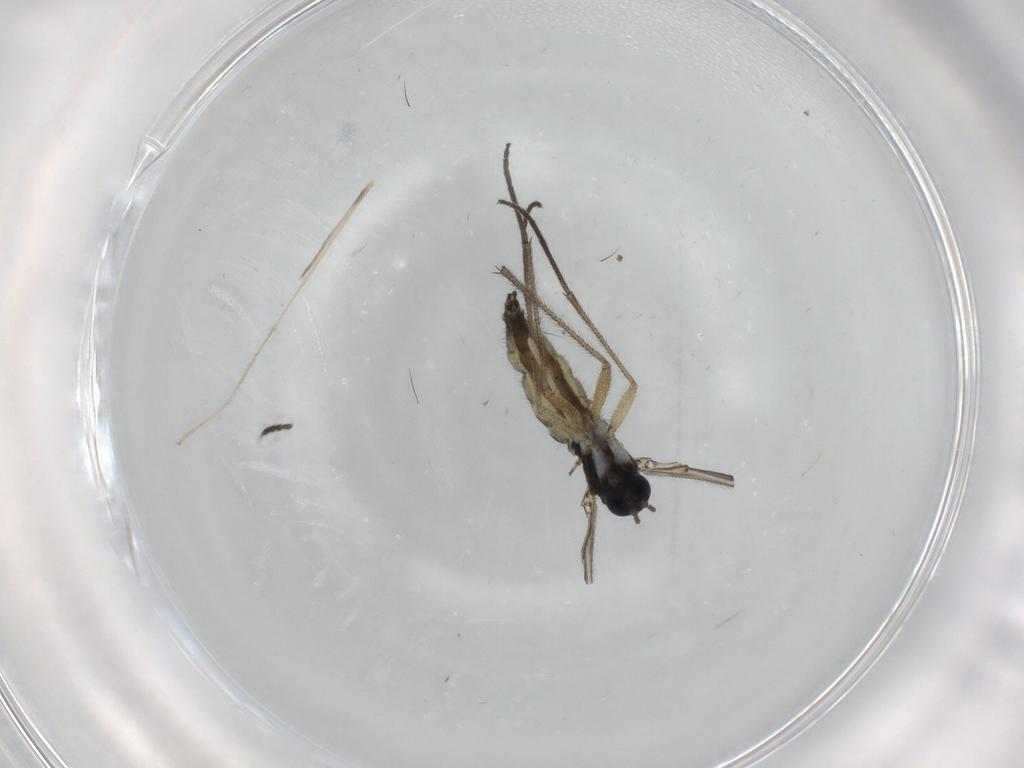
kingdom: Animalia
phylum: Arthropoda
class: Insecta
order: Diptera
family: Sciaridae
